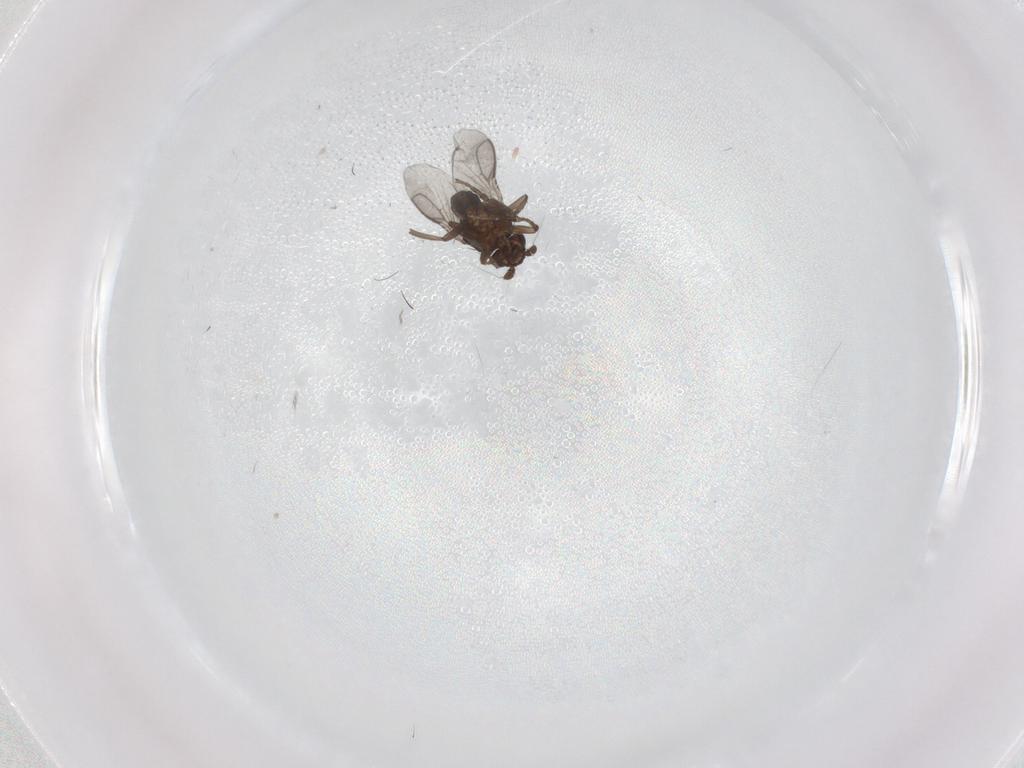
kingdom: Animalia
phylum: Arthropoda
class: Insecta
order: Diptera
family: Sphaeroceridae
